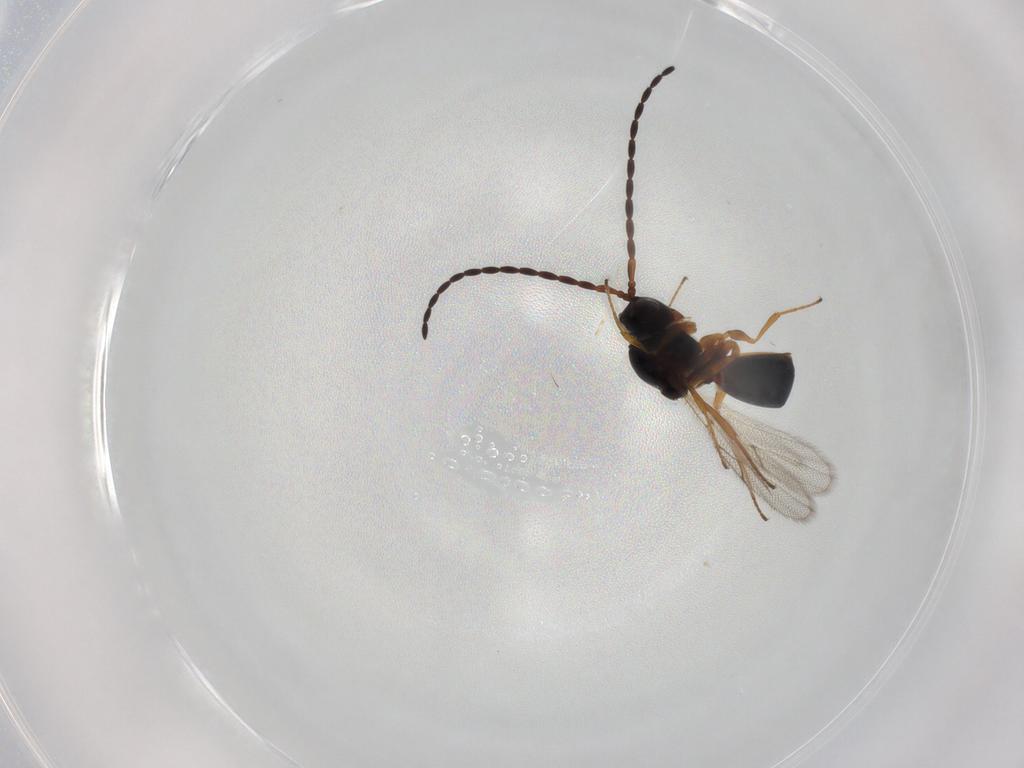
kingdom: Animalia
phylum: Arthropoda
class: Insecta
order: Hymenoptera
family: Figitidae
